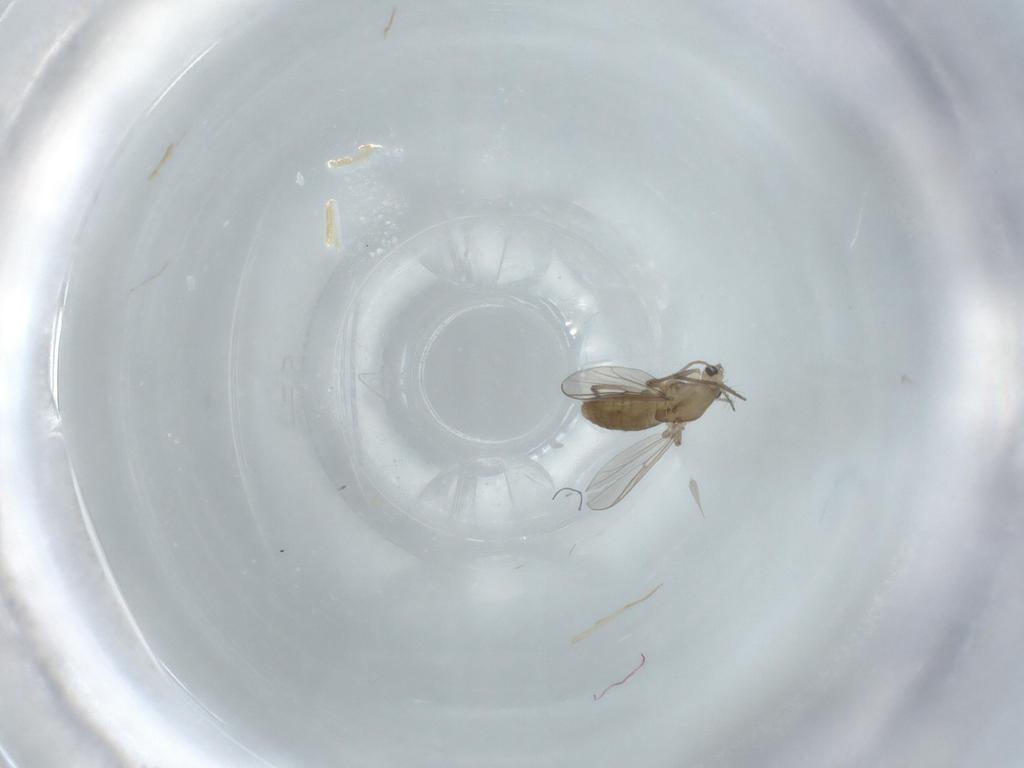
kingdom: Animalia
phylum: Arthropoda
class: Insecta
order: Diptera
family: Chironomidae
